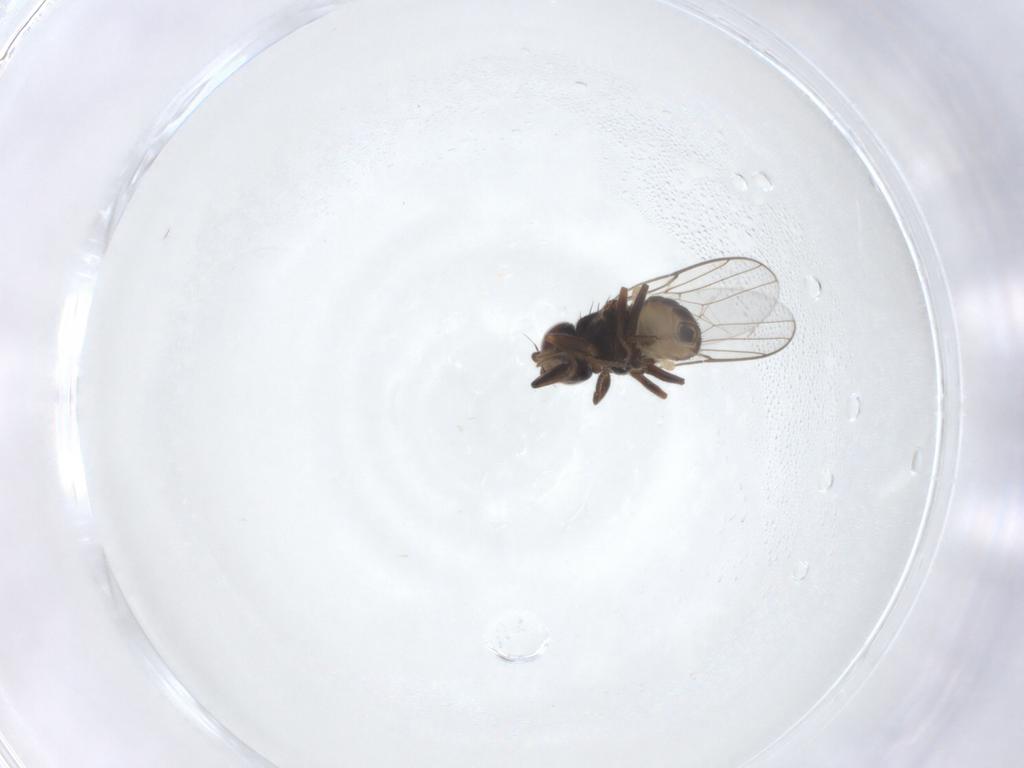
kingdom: Animalia
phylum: Arthropoda
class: Insecta
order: Diptera
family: Chloropidae
